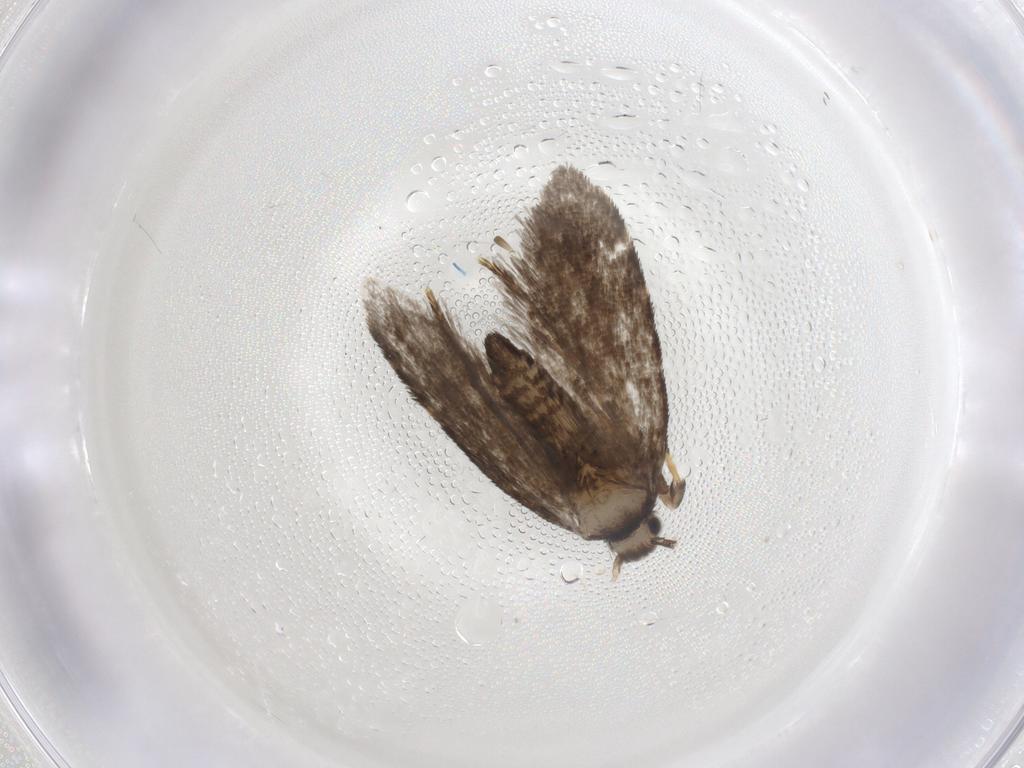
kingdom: Animalia
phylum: Arthropoda
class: Insecta
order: Lepidoptera
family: Psychidae
